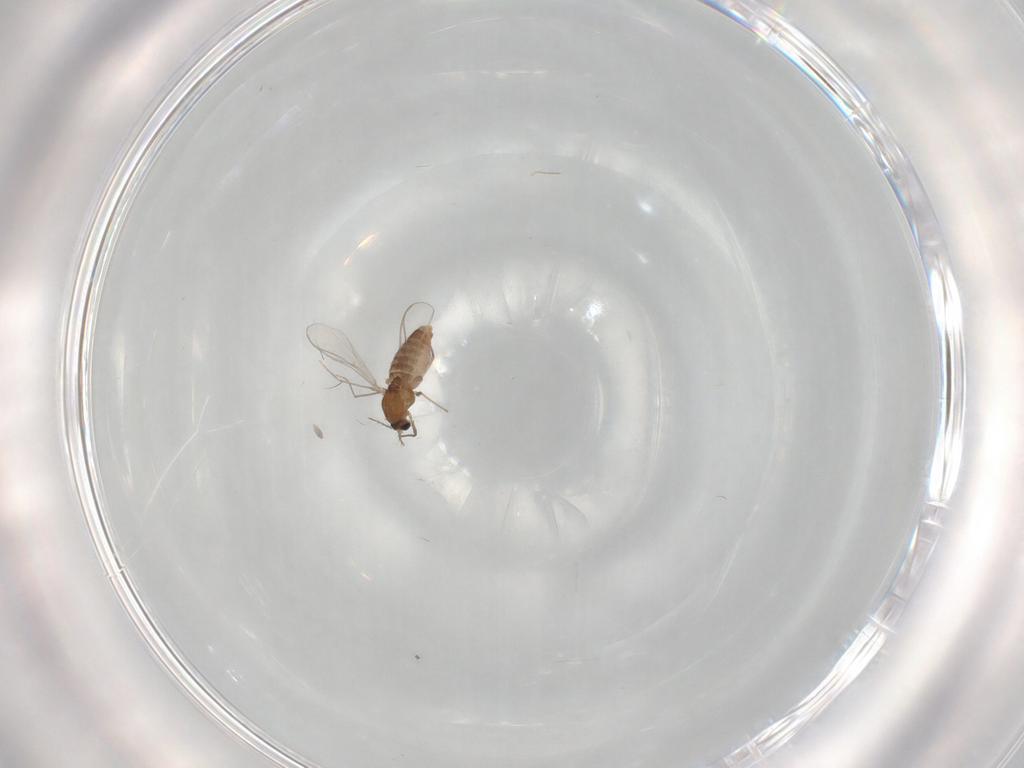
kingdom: Animalia
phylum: Arthropoda
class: Insecta
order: Diptera
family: Chironomidae
